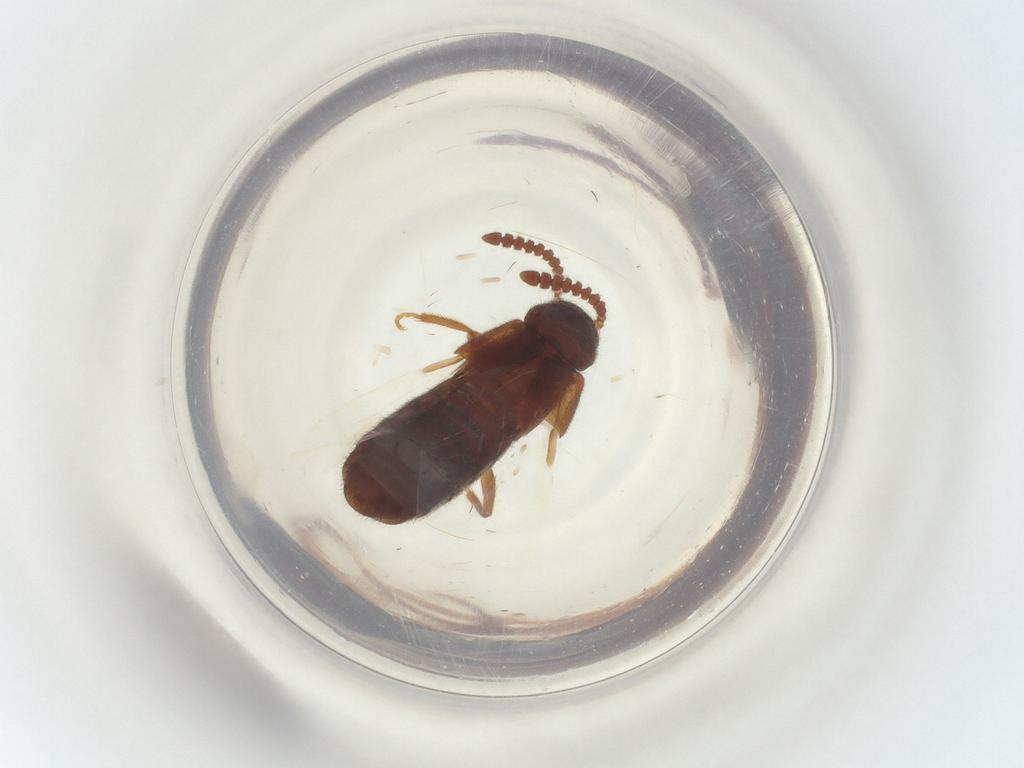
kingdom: Animalia
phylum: Arthropoda
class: Insecta
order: Coleoptera
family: Staphylinidae
